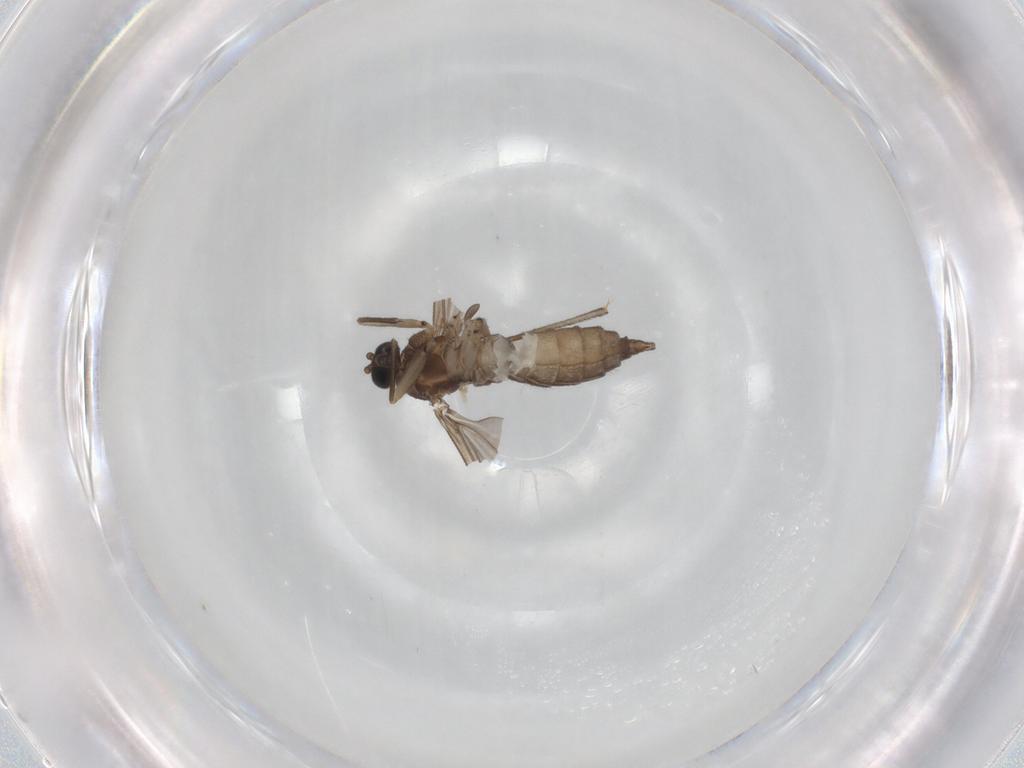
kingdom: Animalia
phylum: Arthropoda
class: Insecta
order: Diptera
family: Sciaridae
